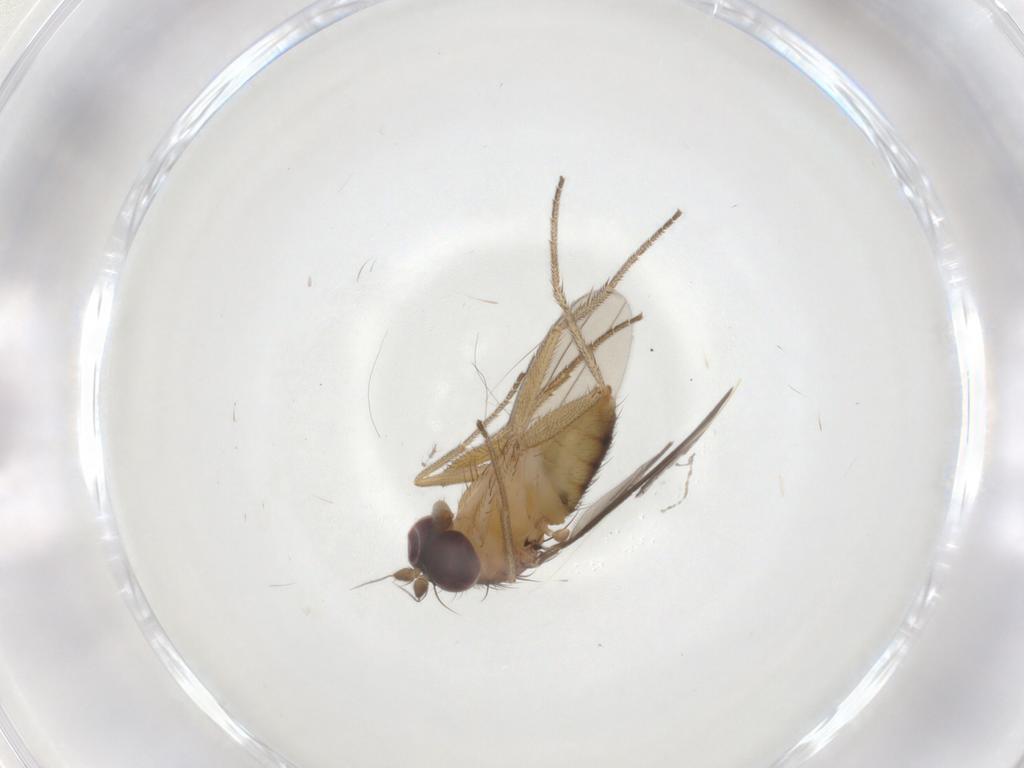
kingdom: Animalia
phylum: Arthropoda
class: Insecta
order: Diptera
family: Dolichopodidae
